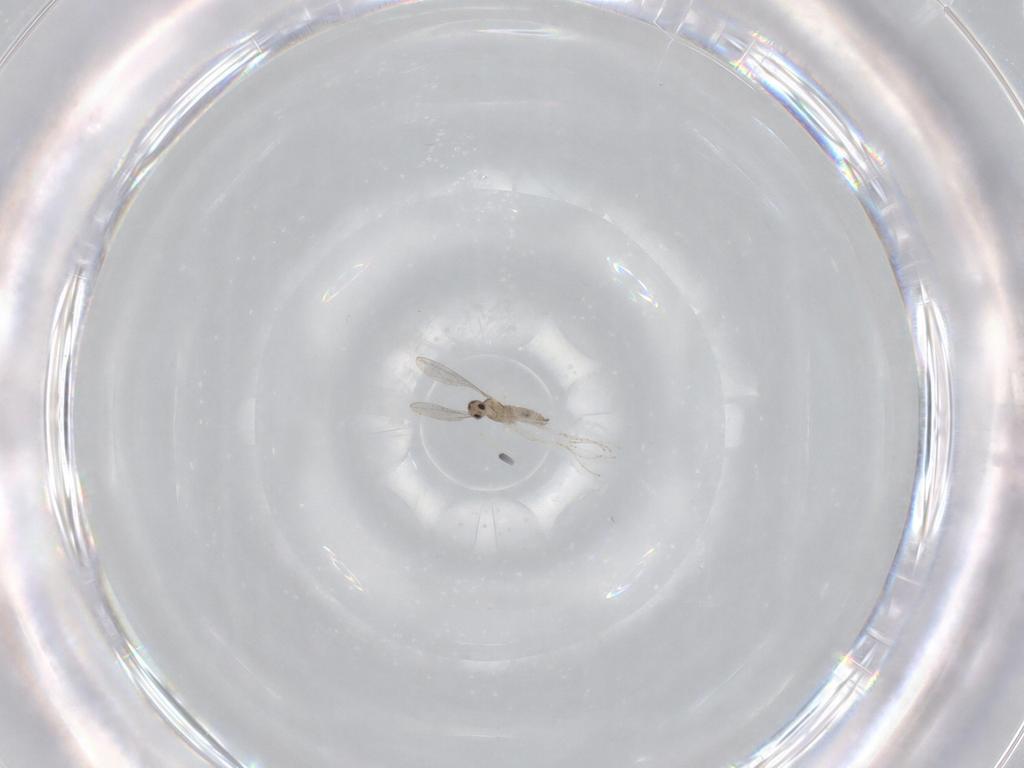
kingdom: Animalia
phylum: Arthropoda
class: Insecta
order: Diptera
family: Cecidomyiidae
